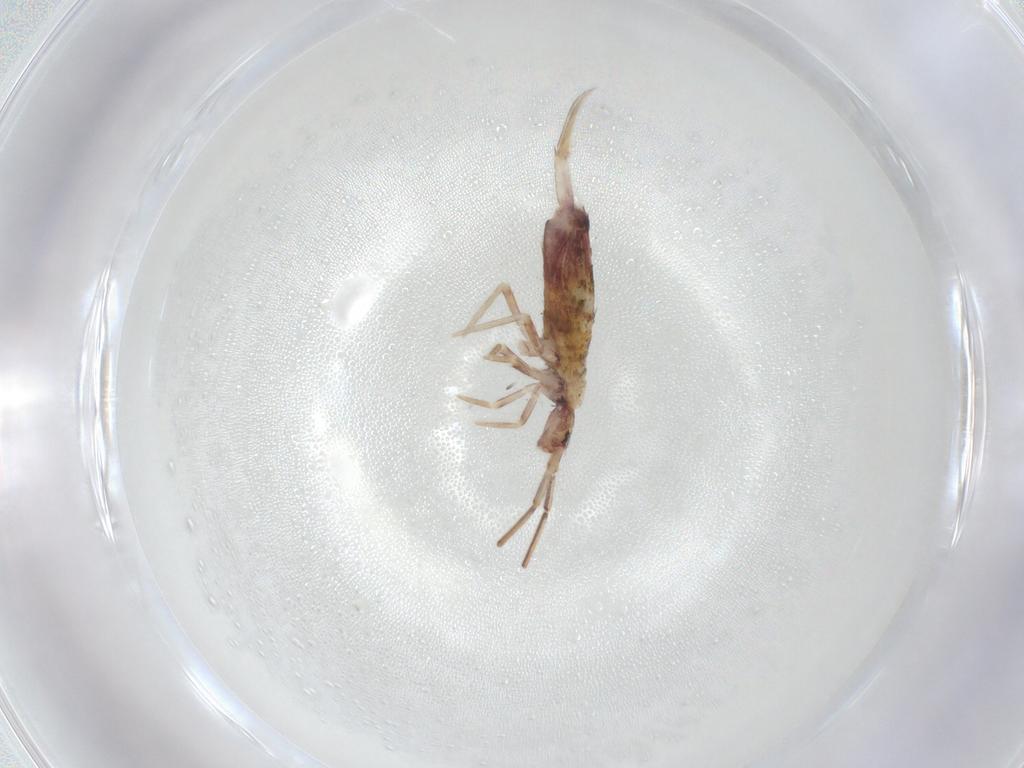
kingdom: Animalia
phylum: Arthropoda
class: Collembola
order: Entomobryomorpha
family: Entomobryidae
